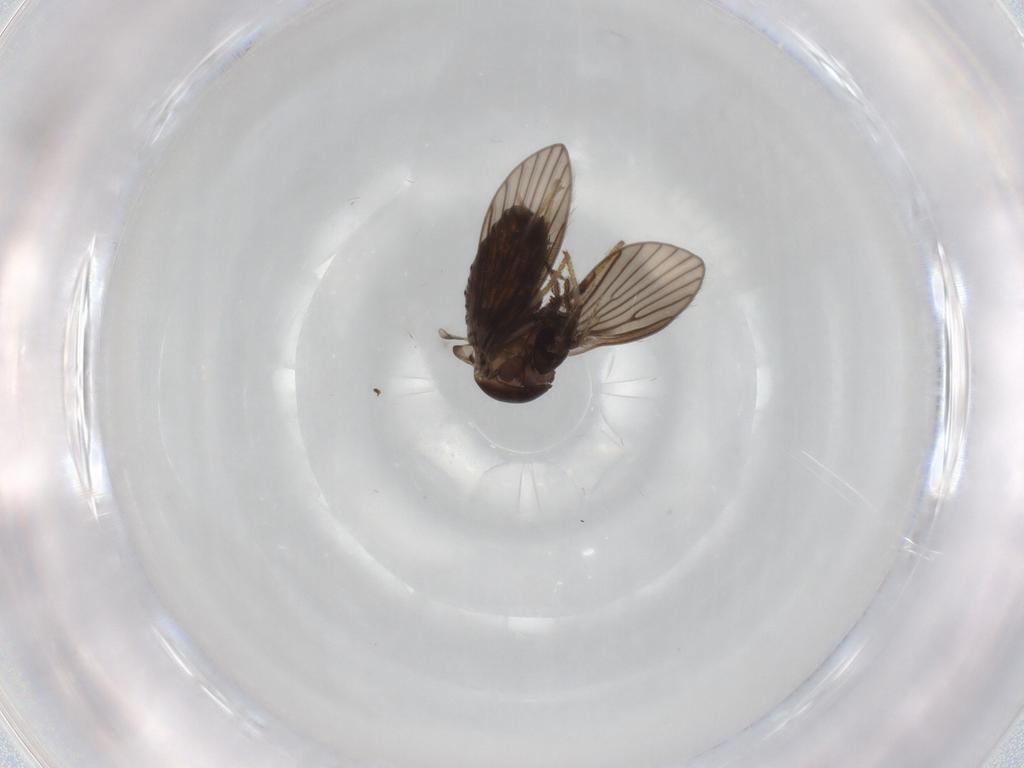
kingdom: Animalia
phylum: Arthropoda
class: Insecta
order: Diptera
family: Psychodidae
